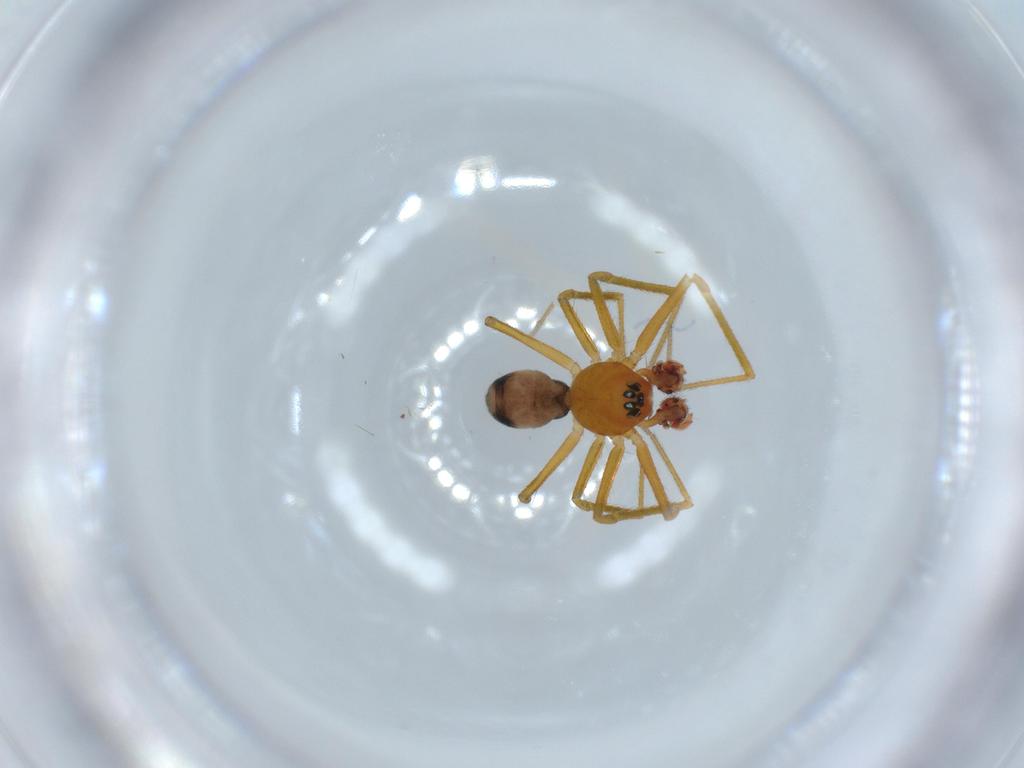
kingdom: Animalia
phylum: Arthropoda
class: Arachnida
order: Araneae
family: Linyphiidae
